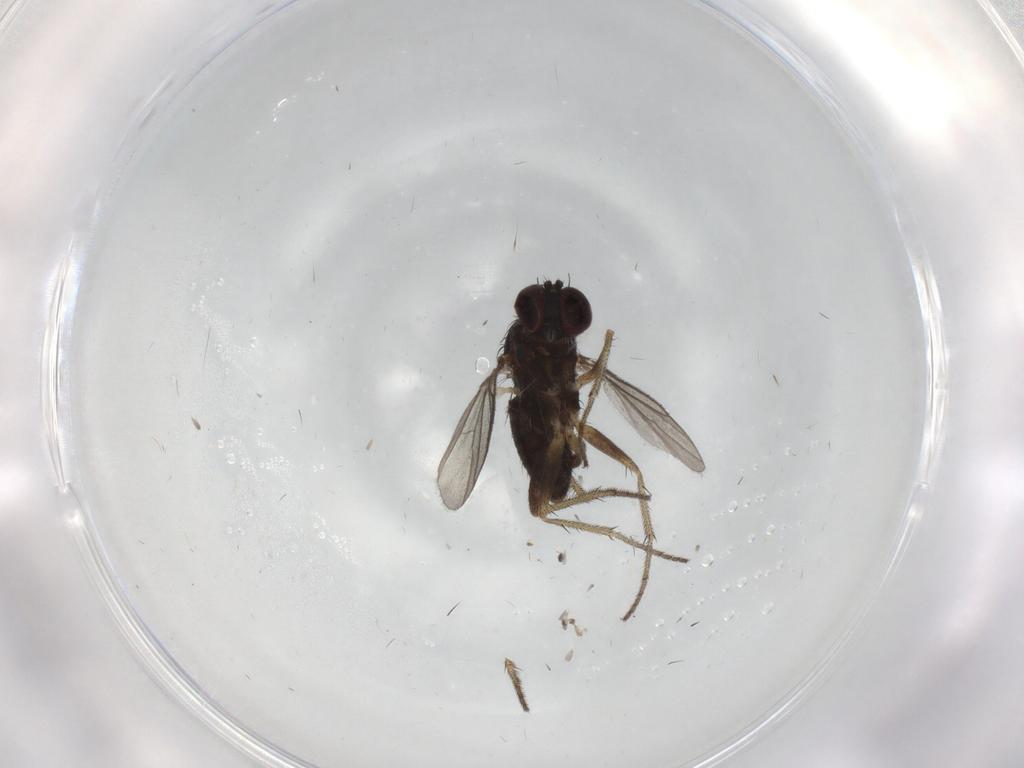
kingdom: Animalia
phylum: Arthropoda
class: Insecta
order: Diptera
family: Dolichopodidae
